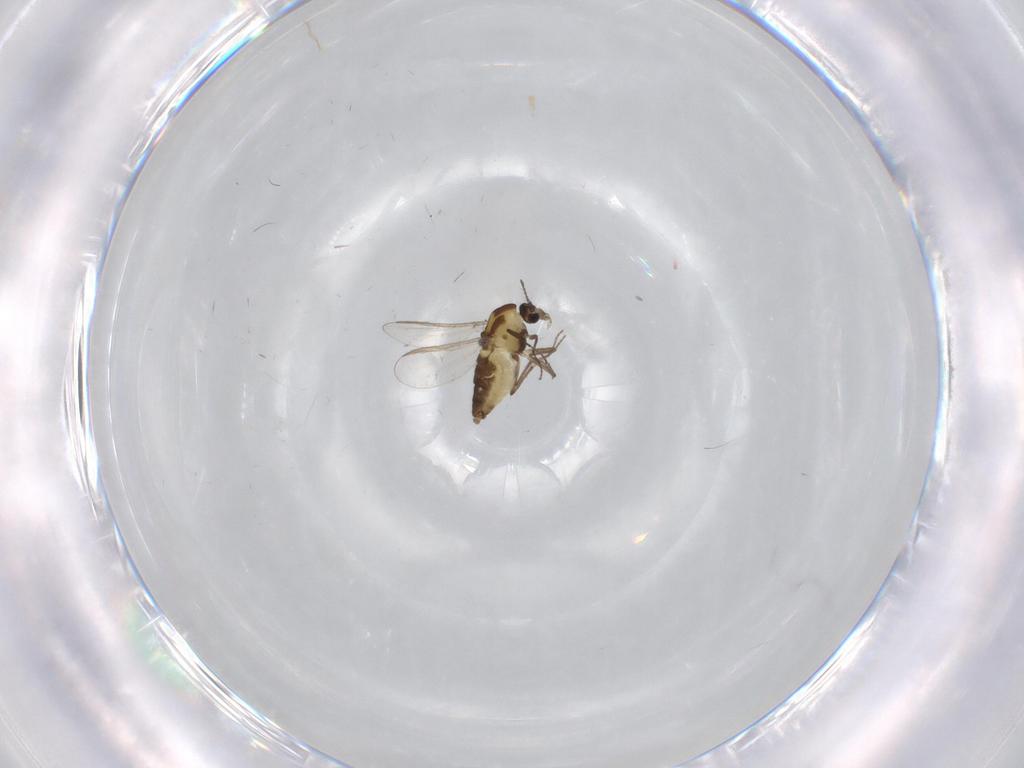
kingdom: Animalia
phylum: Arthropoda
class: Insecta
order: Diptera
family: Chironomidae
